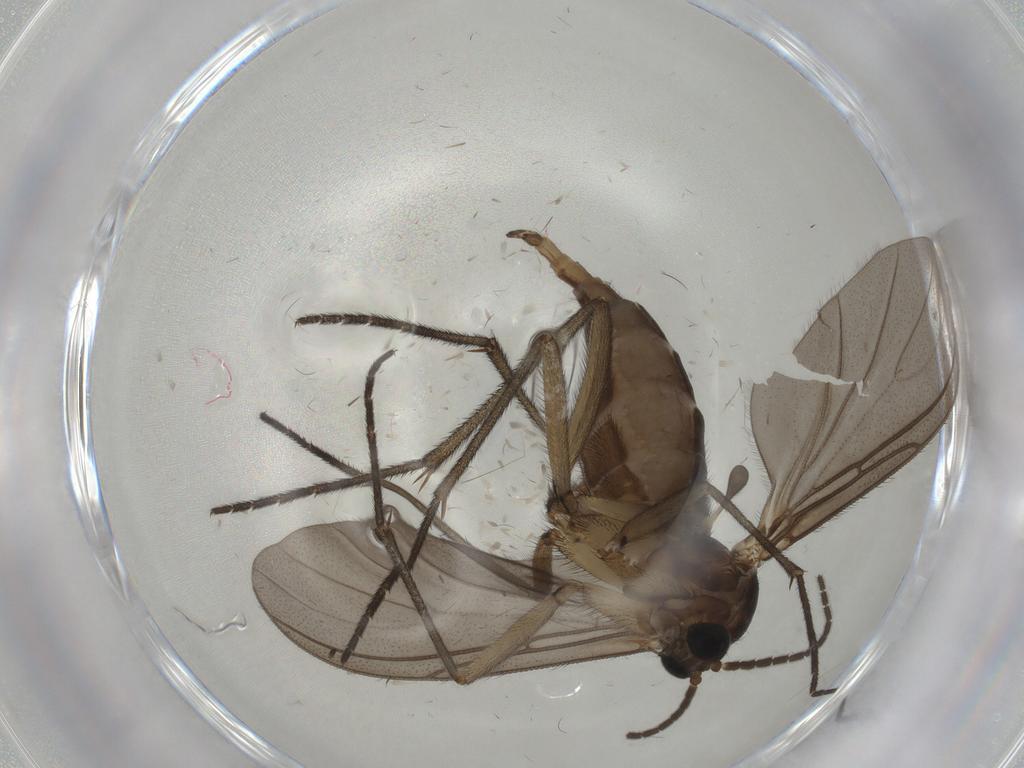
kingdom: Animalia
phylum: Arthropoda
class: Insecta
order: Diptera
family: Sciaridae
